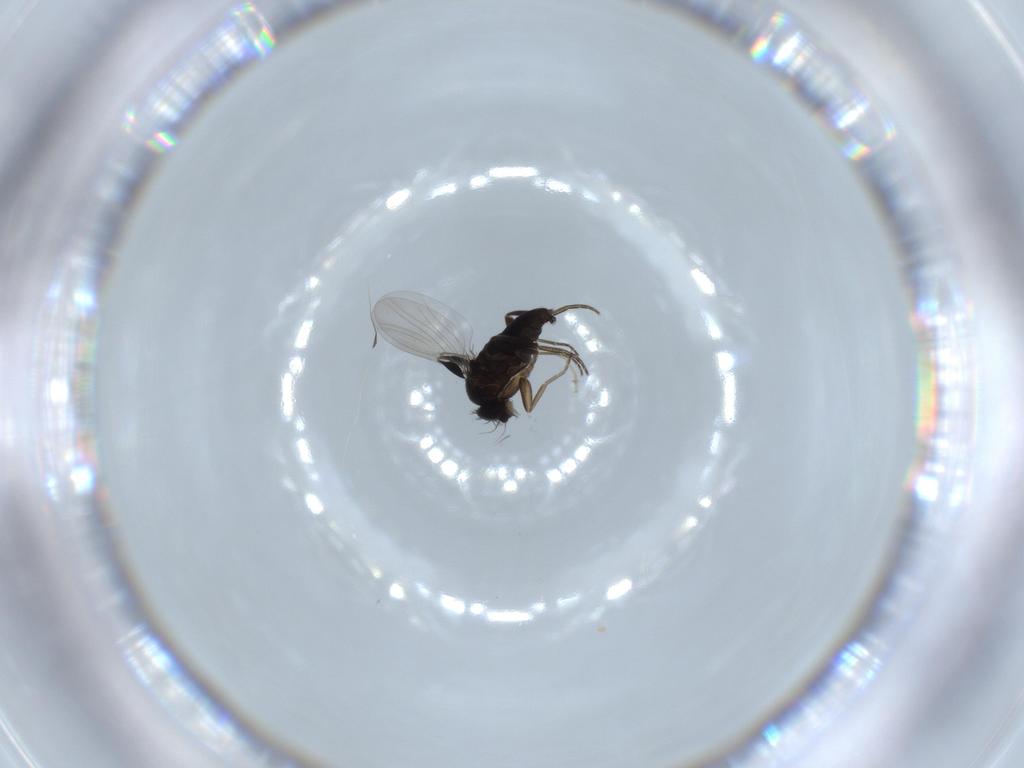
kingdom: Animalia
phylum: Arthropoda
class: Insecta
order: Diptera
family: Phoridae
